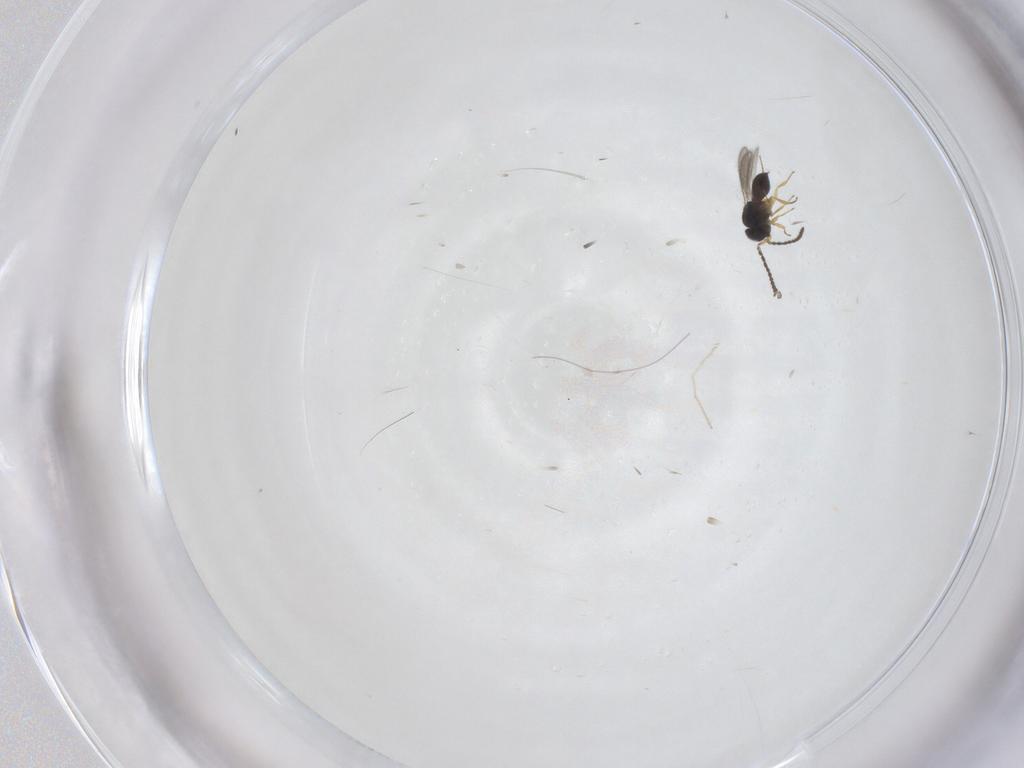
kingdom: Animalia
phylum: Arthropoda
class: Insecta
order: Hymenoptera
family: Scelionidae
